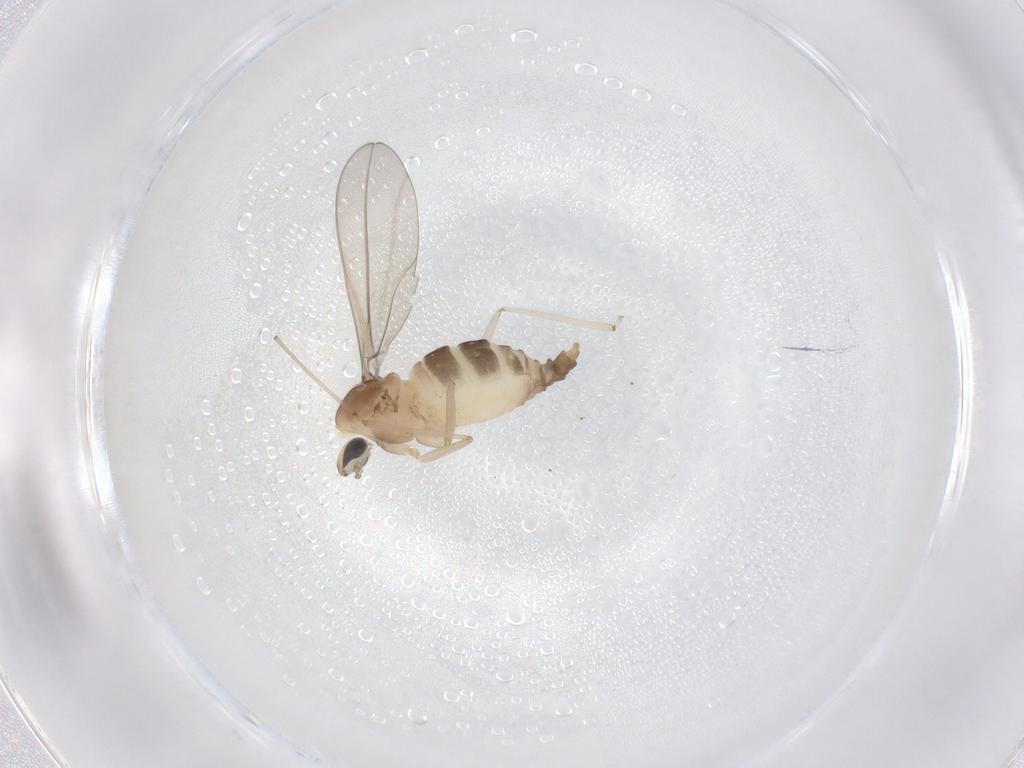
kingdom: Animalia
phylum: Arthropoda
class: Insecta
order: Diptera
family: Cecidomyiidae
